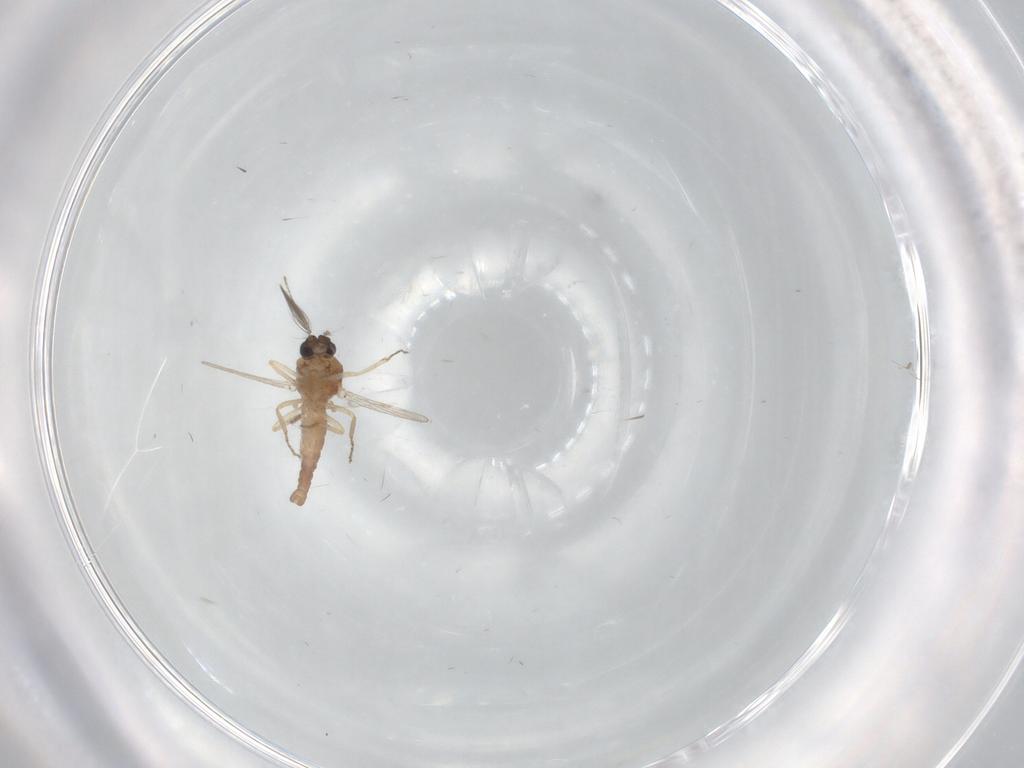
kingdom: Animalia
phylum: Arthropoda
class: Insecta
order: Diptera
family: Ceratopogonidae
